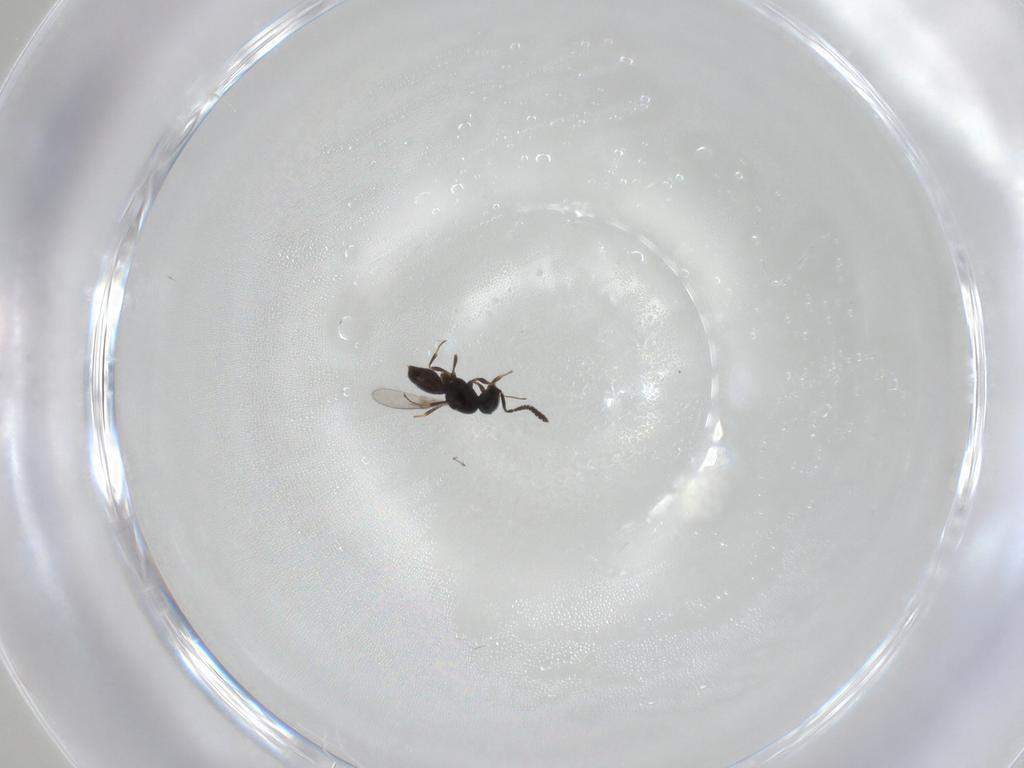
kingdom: Animalia
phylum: Arthropoda
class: Insecta
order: Hymenoptera
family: Scelionidae
